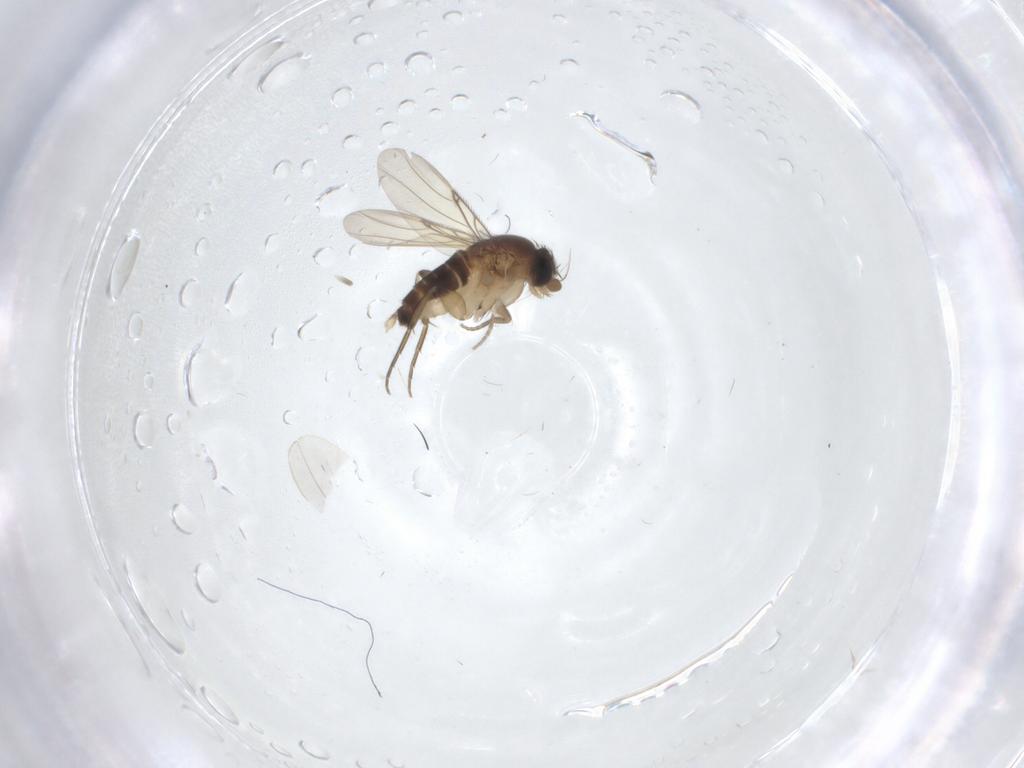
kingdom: Animalia
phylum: Arthropoda
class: Insecta
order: Diptera
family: Phoridae
